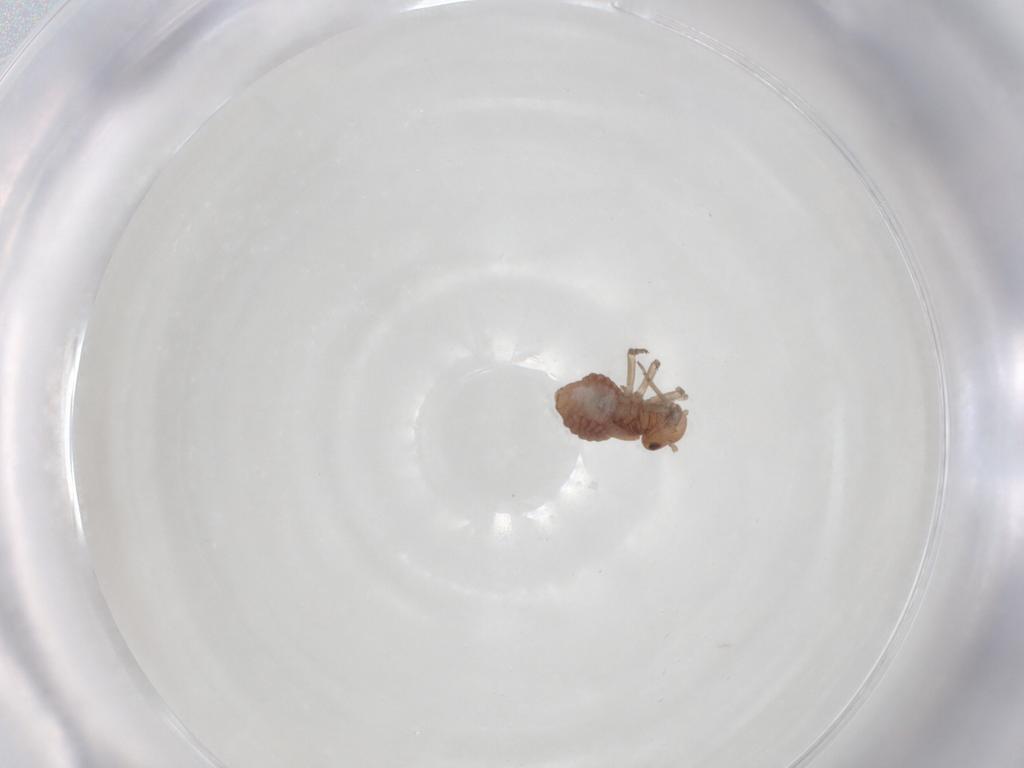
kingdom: Animalia
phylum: Arthropoda
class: Insecta
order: Psocodea
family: Peripsocidae
